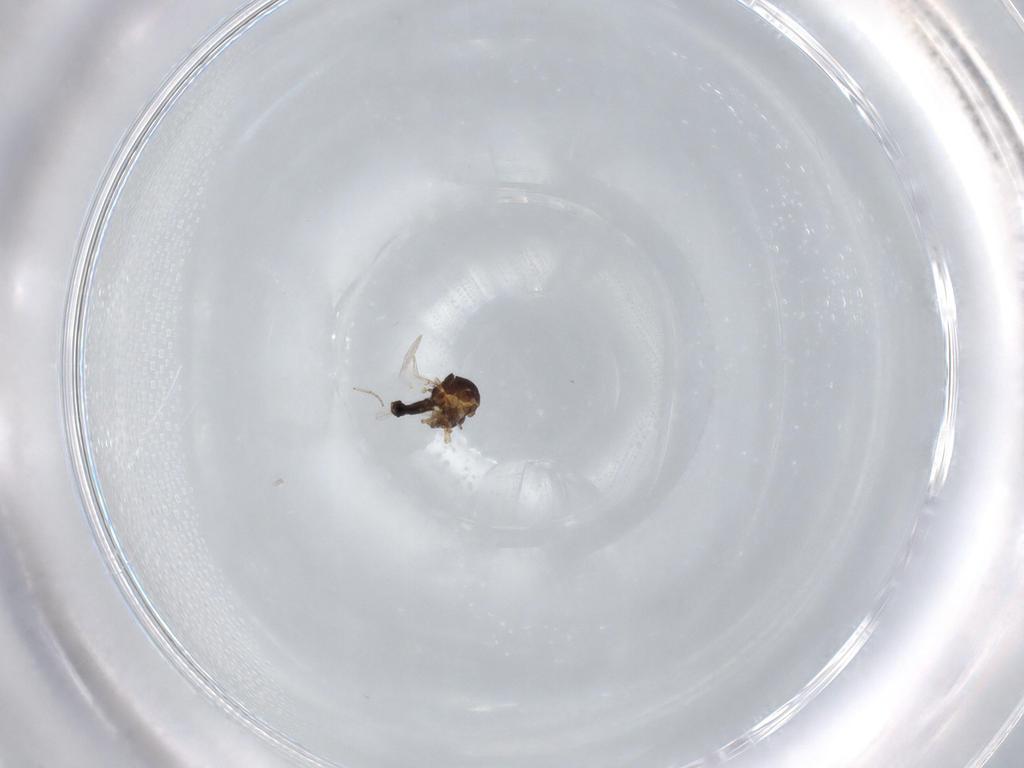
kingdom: Animalia
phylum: Arthropoda
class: Insecta
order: Diptera
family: Ceratopogonidae
